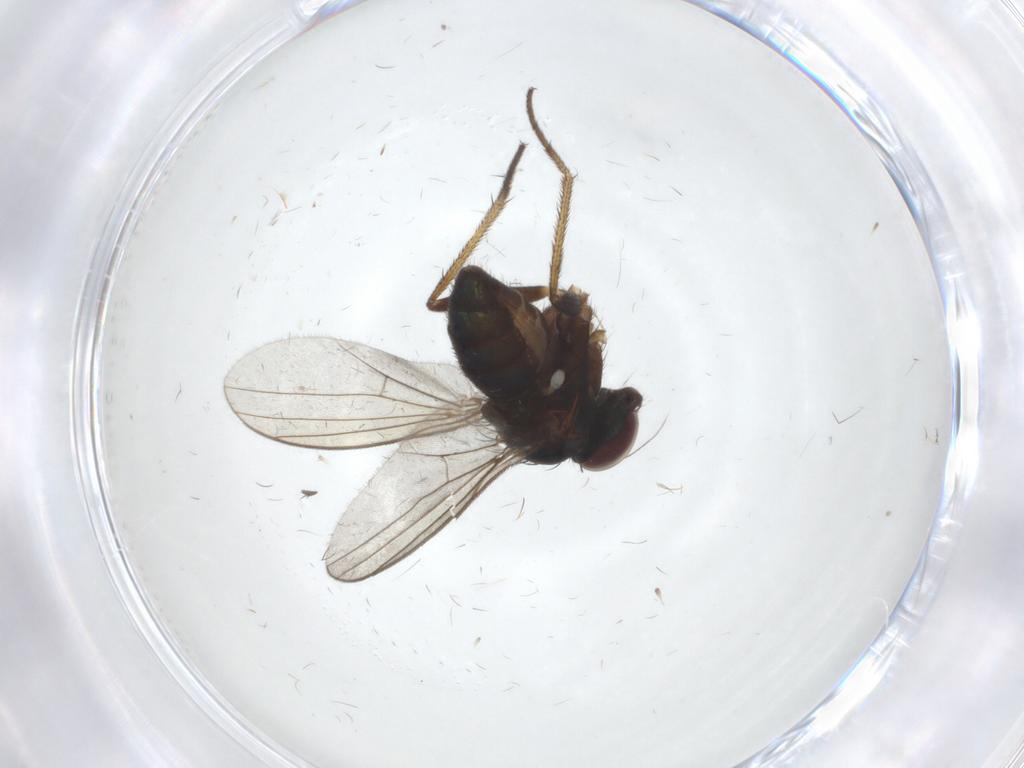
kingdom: Animalia
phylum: Arthropoda
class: Insecta
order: Diptera
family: Dolichopodidae
